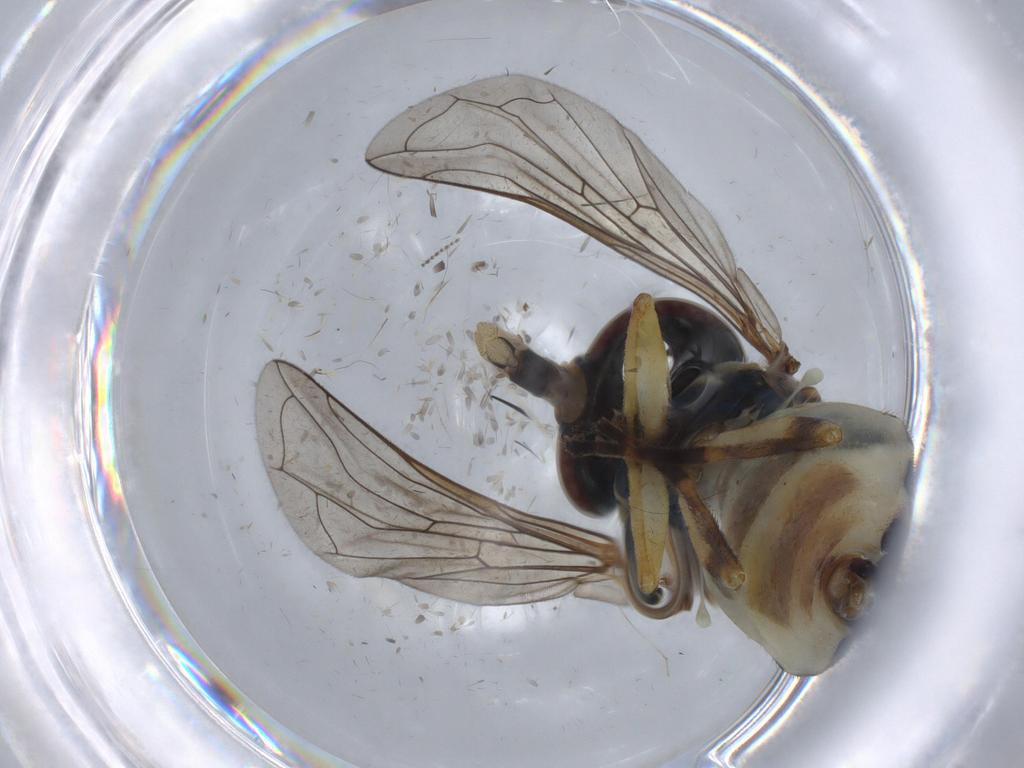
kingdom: Animalia
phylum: Arthropoda
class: Insecta
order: Diptera
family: Syrphidae
